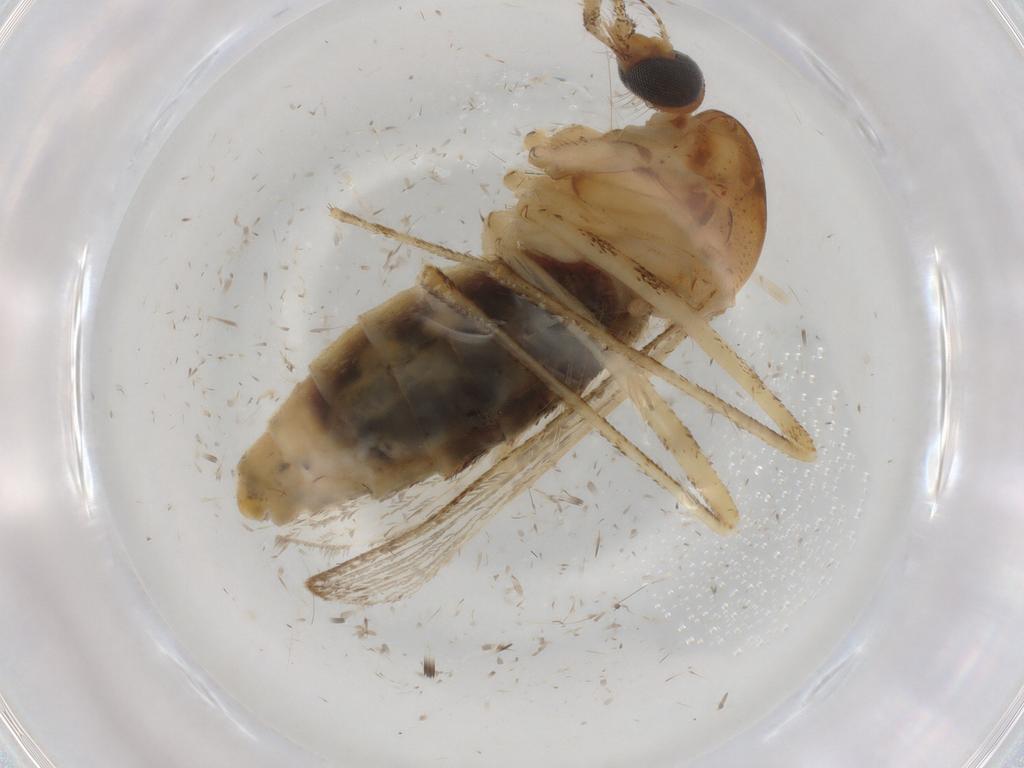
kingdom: Animalia
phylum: Arthropoda
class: Insecta
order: Diptera
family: Muscidae
